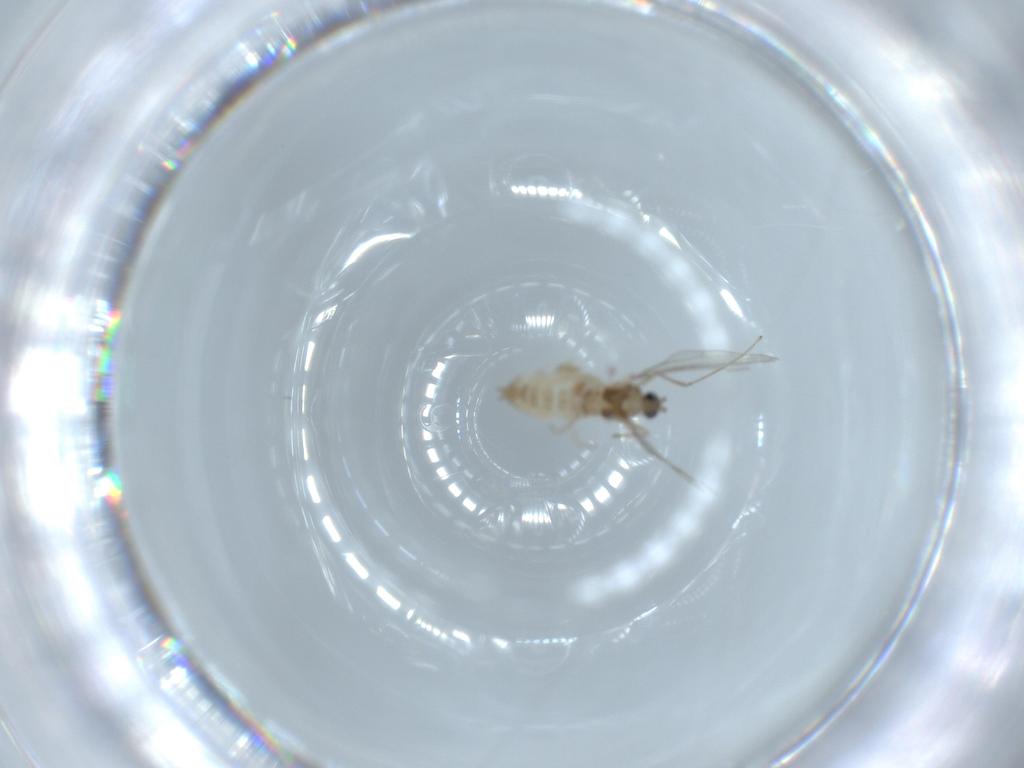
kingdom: Animalia
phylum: Arthropoda
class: Insecta
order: Diptera
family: Cecidomyiidae
